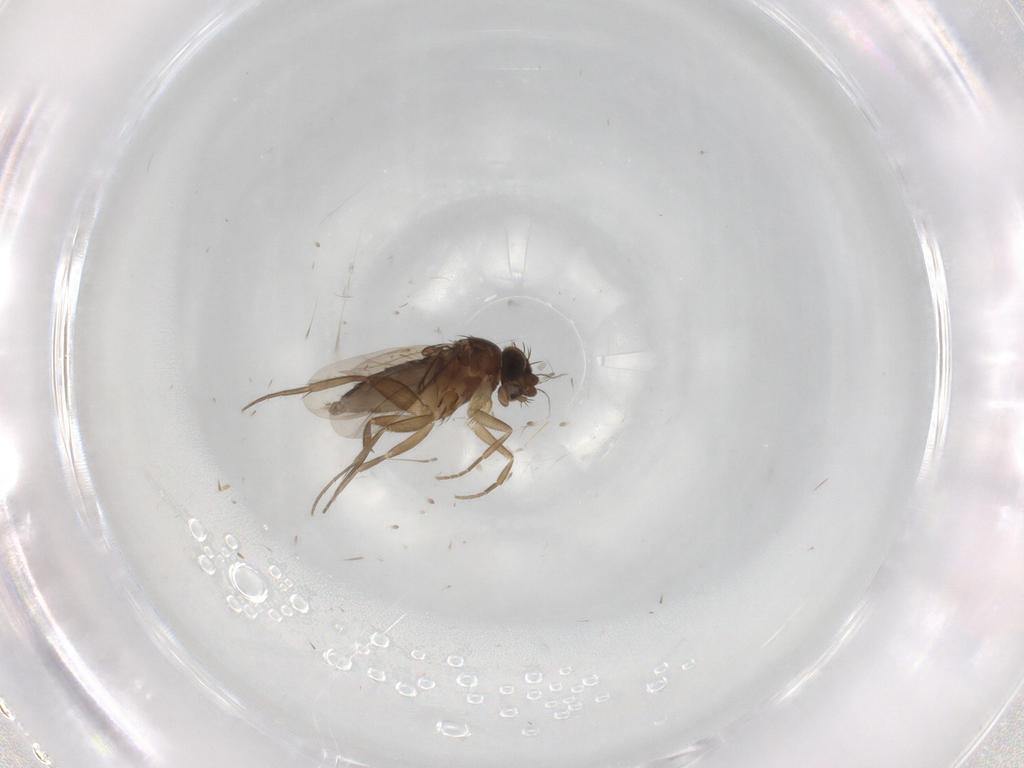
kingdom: Animalia
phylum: Arthropoda
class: Insecta
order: Diptera
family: Phoridae
